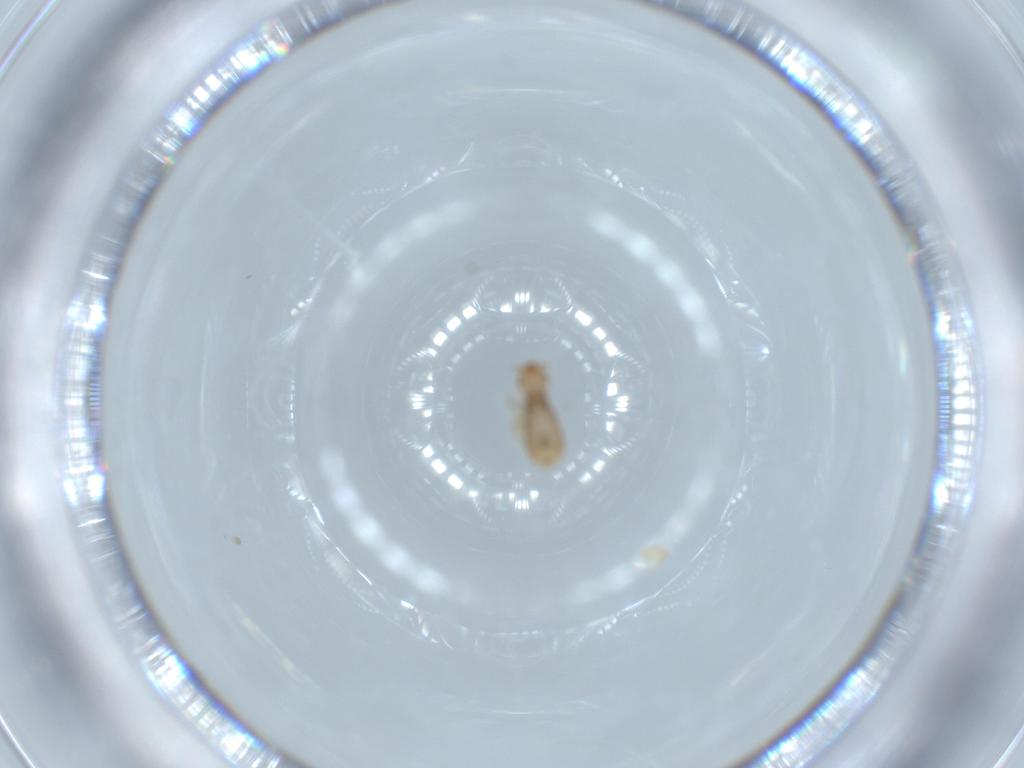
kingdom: Animalia
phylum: Arthropoda
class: Insecta
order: Psocodea
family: Liposcelididae
